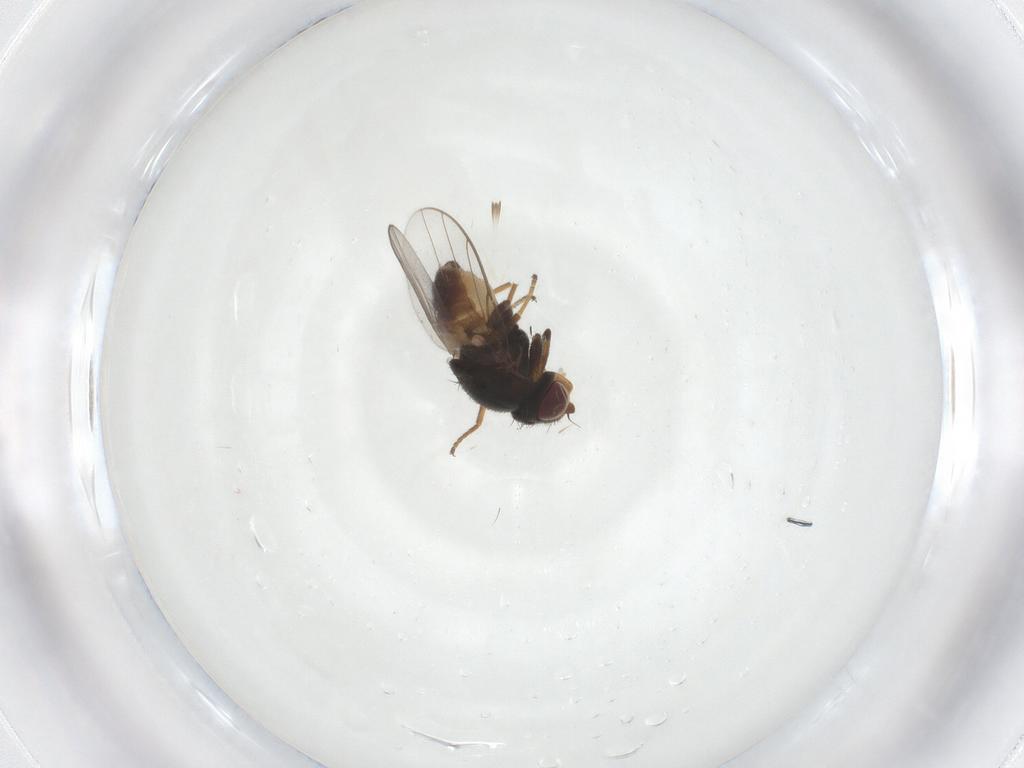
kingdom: Animalia
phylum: Arthropoda
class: Insecta
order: Diptera
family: Chloropidae
